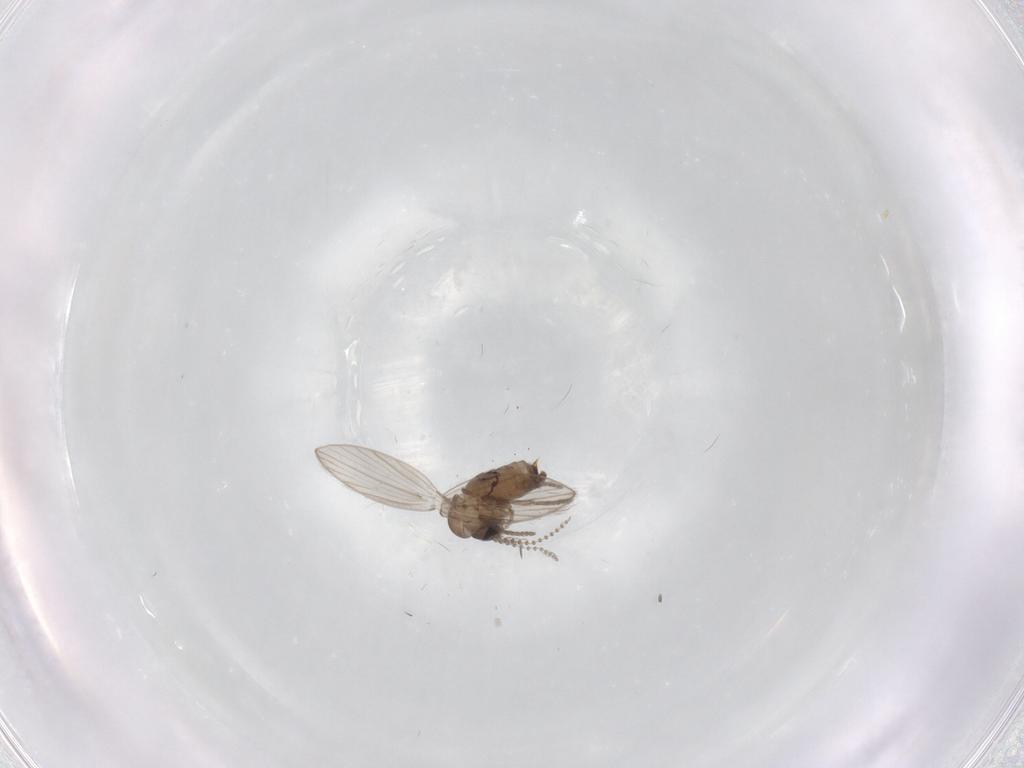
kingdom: Animalia
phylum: Arthropoda
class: Insecta
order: Diptera
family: Psychodidae
